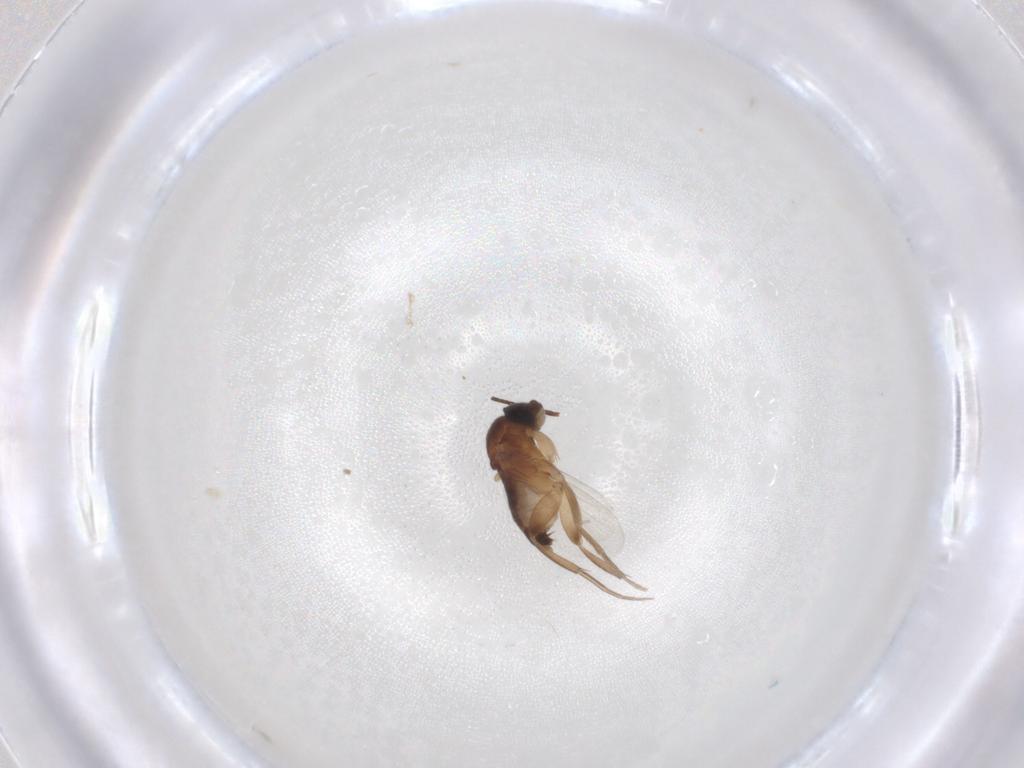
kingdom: Animalia
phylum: Arthropoda
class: Insecta
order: Diptera
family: Phoridae
